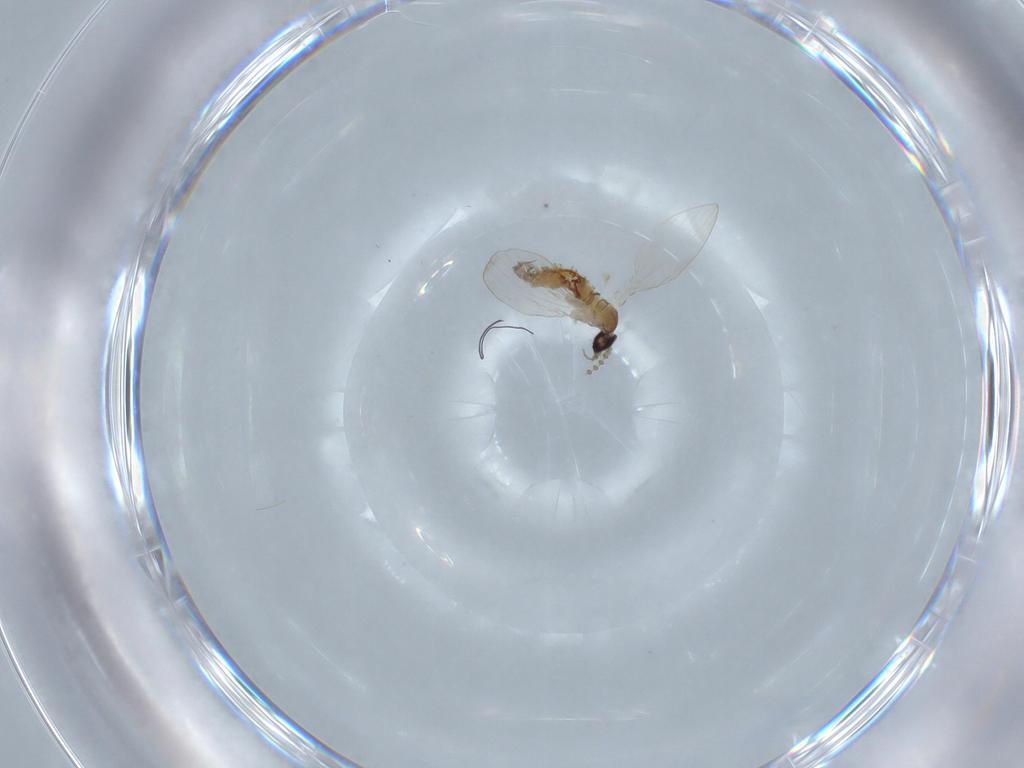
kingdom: Animalia
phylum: Arthropoda
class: Insecta
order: Diptera
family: Psychodidae
